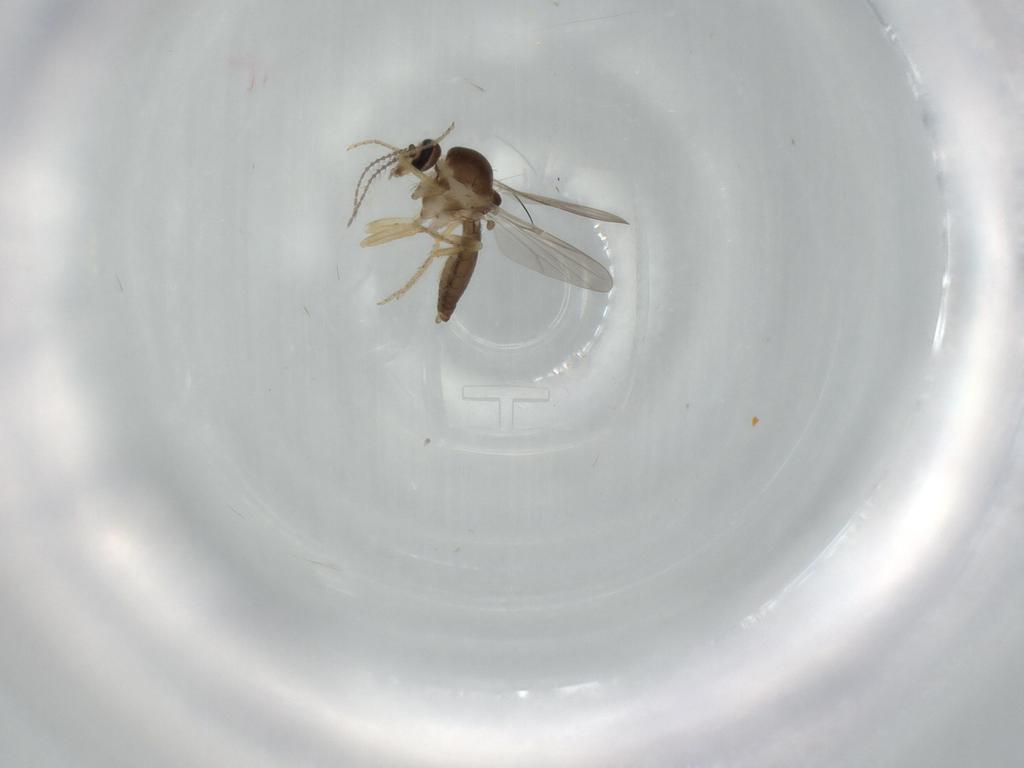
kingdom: Animalia
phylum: Arthropoda
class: Insecta
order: Diptera
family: Ceratopogonidae
